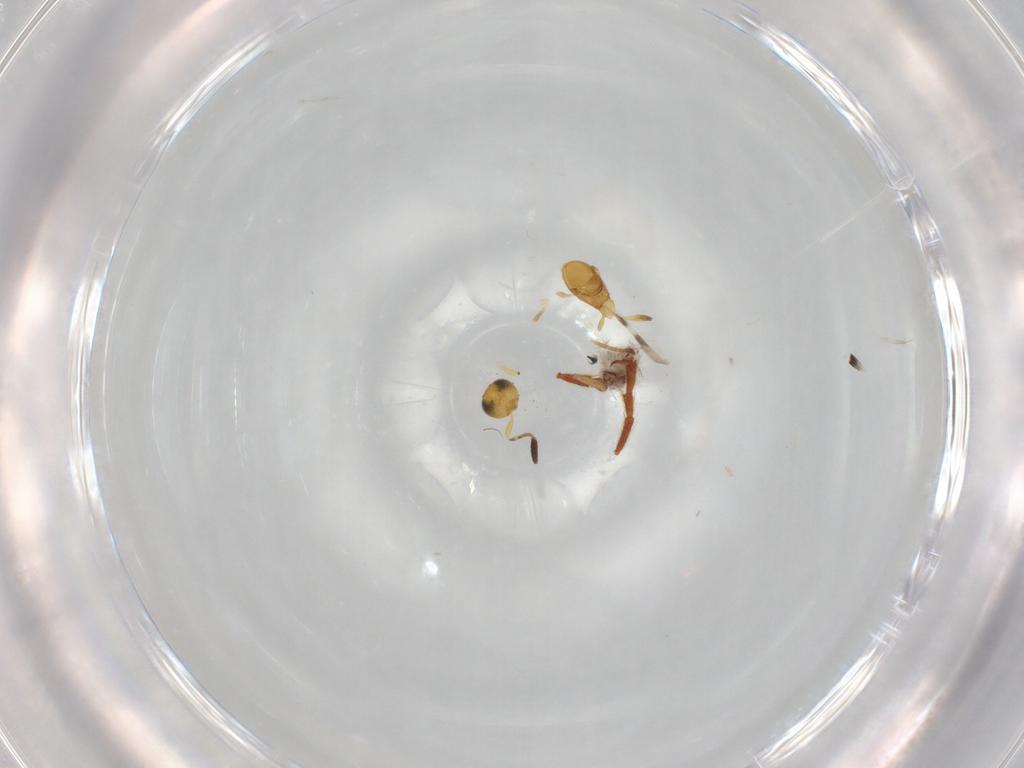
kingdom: Animalia
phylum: Arthropoda
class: Insecta
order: Hymenoptera
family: Formicidae
